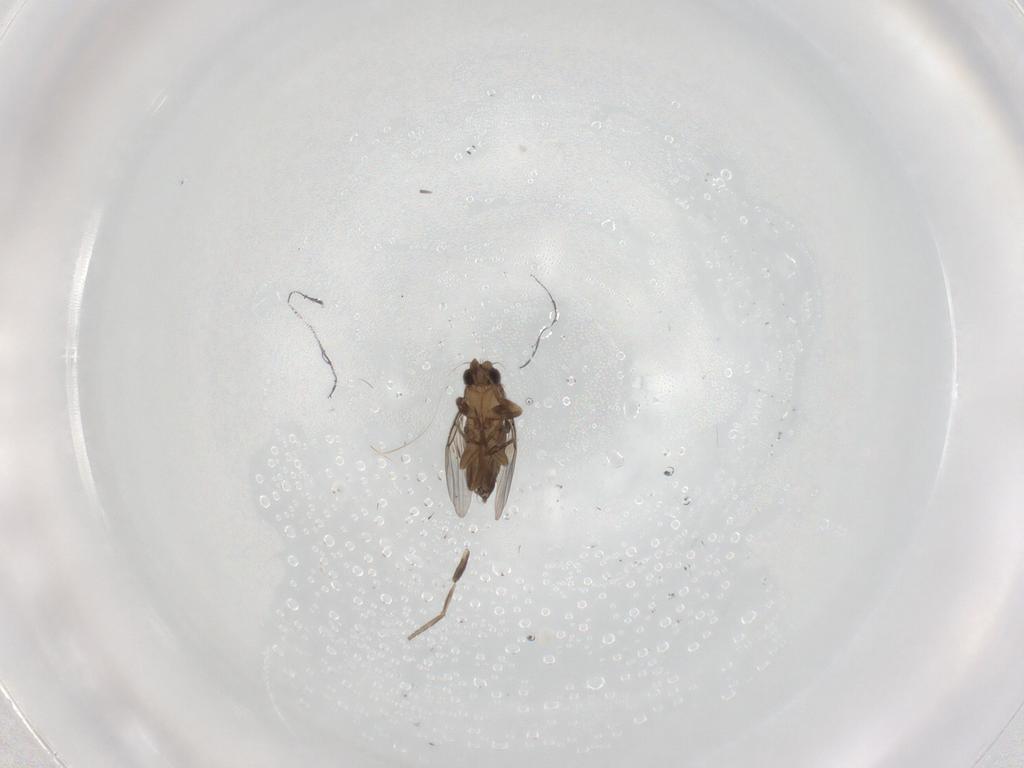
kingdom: Animalia
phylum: Arthropoda
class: Insecta
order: Diptera
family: Phoridae
